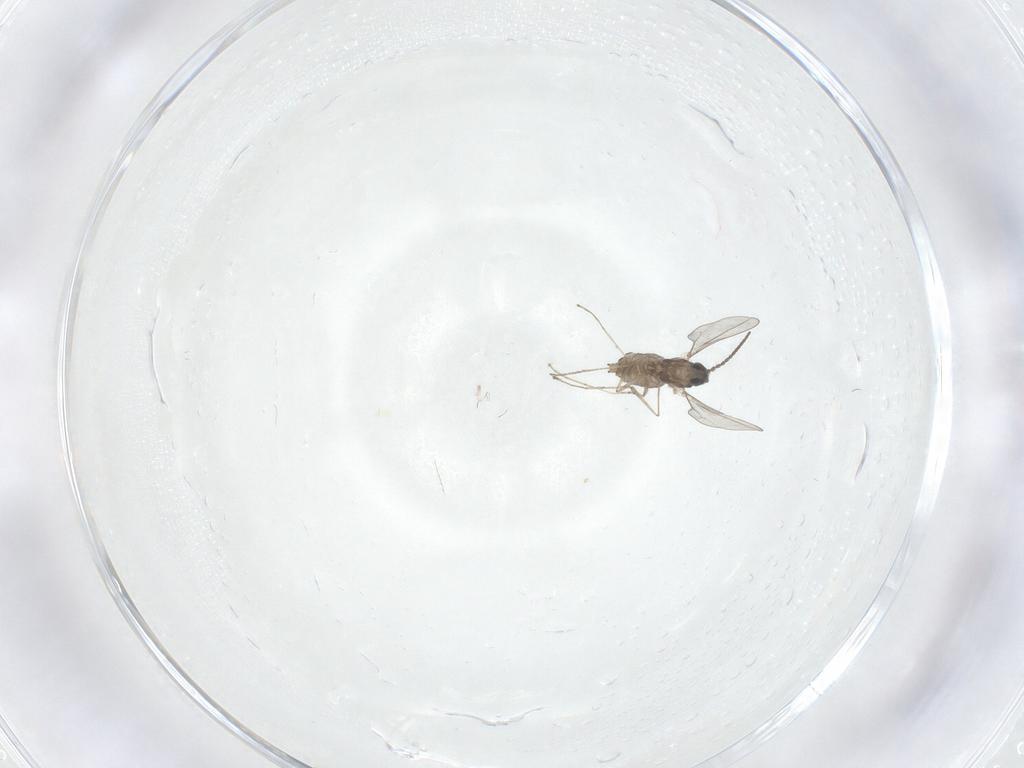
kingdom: Animalia
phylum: Arthropoda
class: Insecta
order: Diptera
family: Cecidomyiidae
